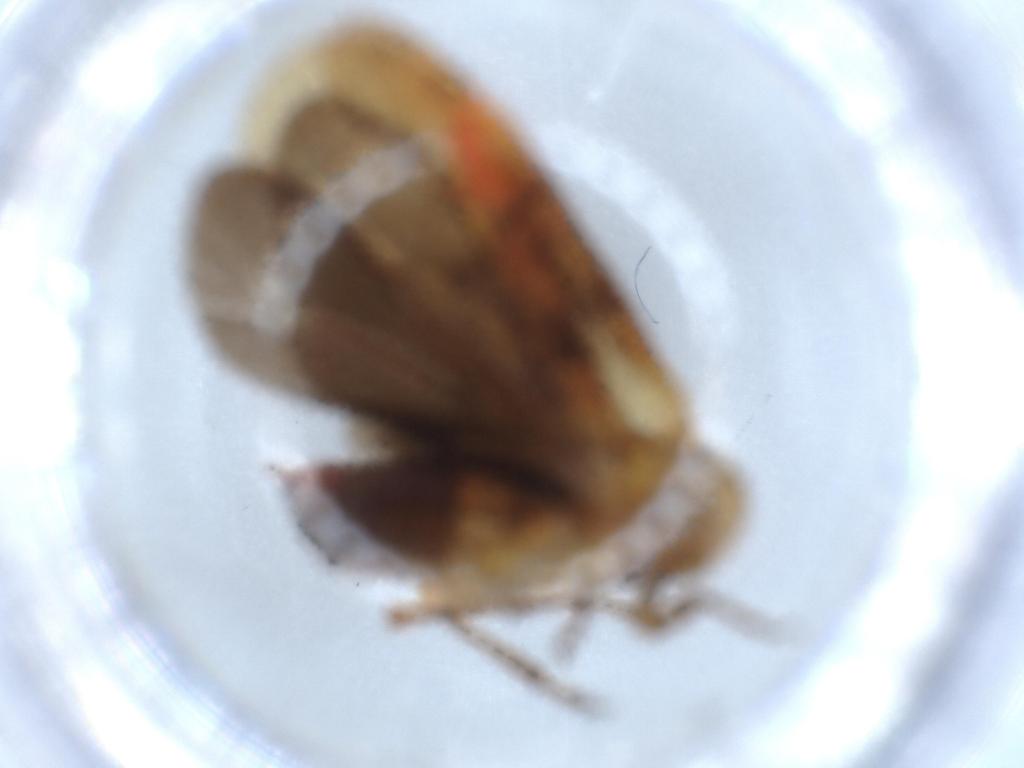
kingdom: Animalia
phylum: Arthropoda
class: Insecta
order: Hemiptera
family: Achilidae
